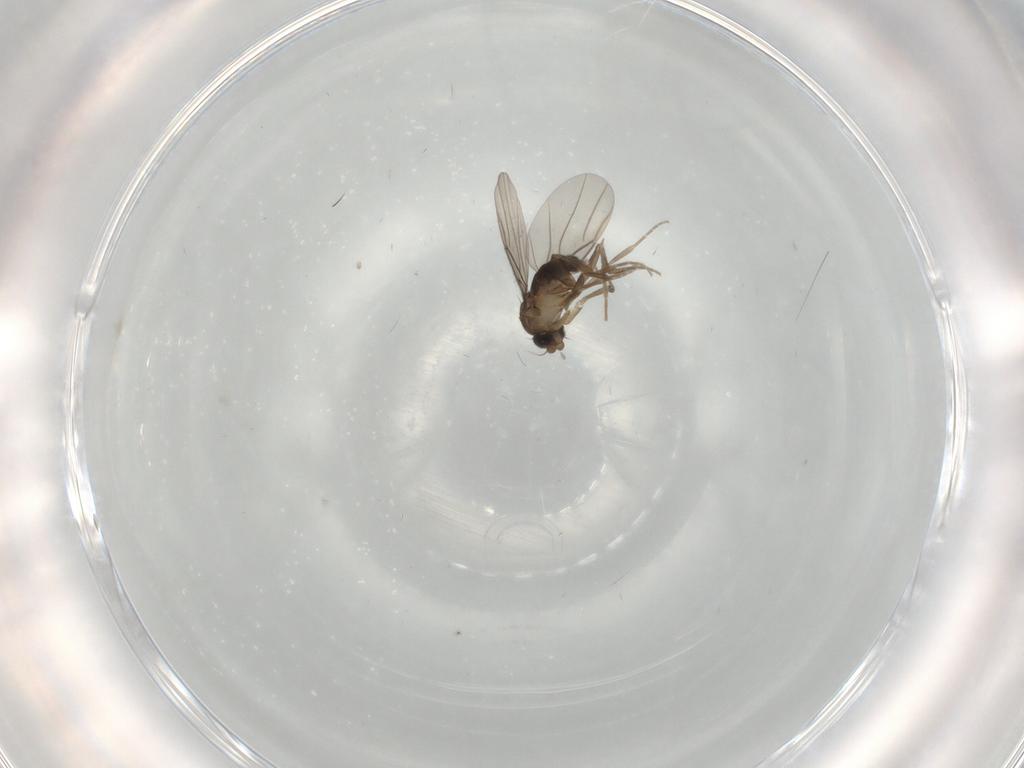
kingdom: Animalia
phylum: Arthropoda
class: Insecta
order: Diptera
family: Chironomidae
